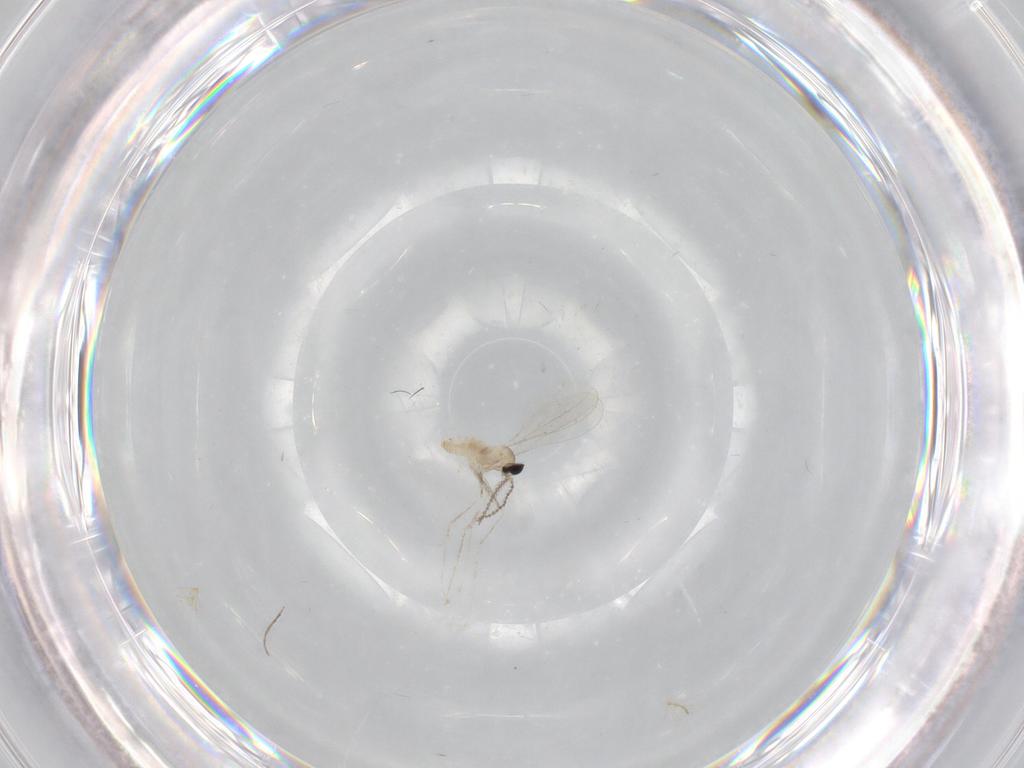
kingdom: Animalia
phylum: Arthropoda
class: Insecta
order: Diptera
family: Cecidomyiidae
